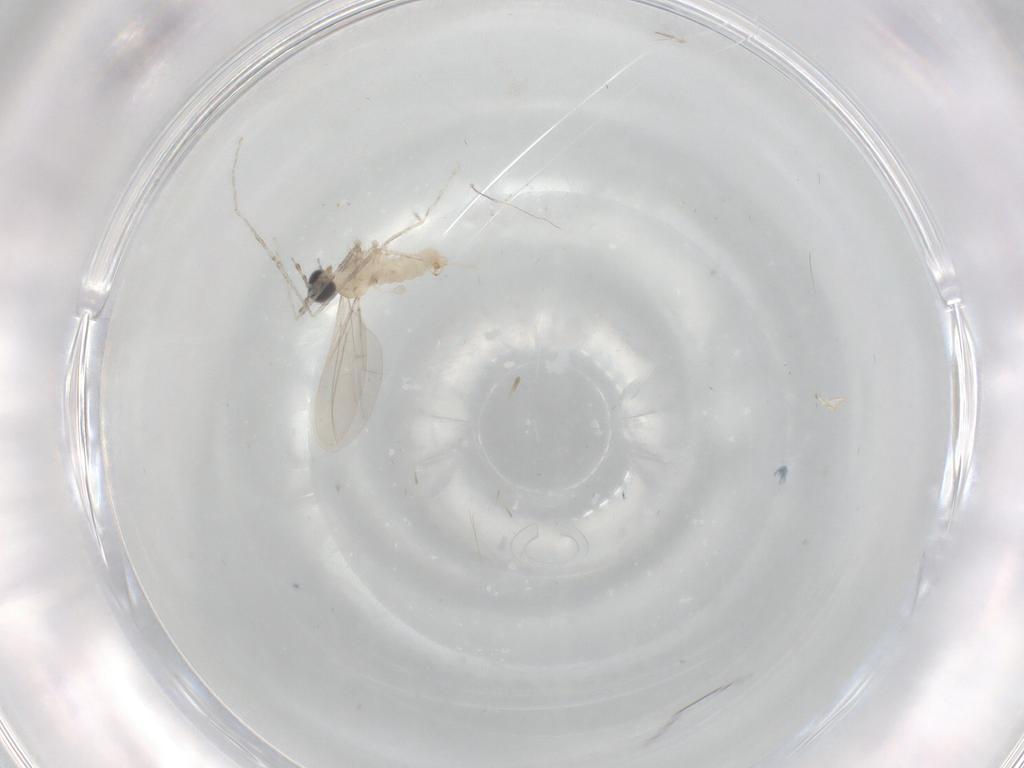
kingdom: Animalia
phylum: Arthropoda
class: Insecta
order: Diptera
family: Cecidomyiidae
